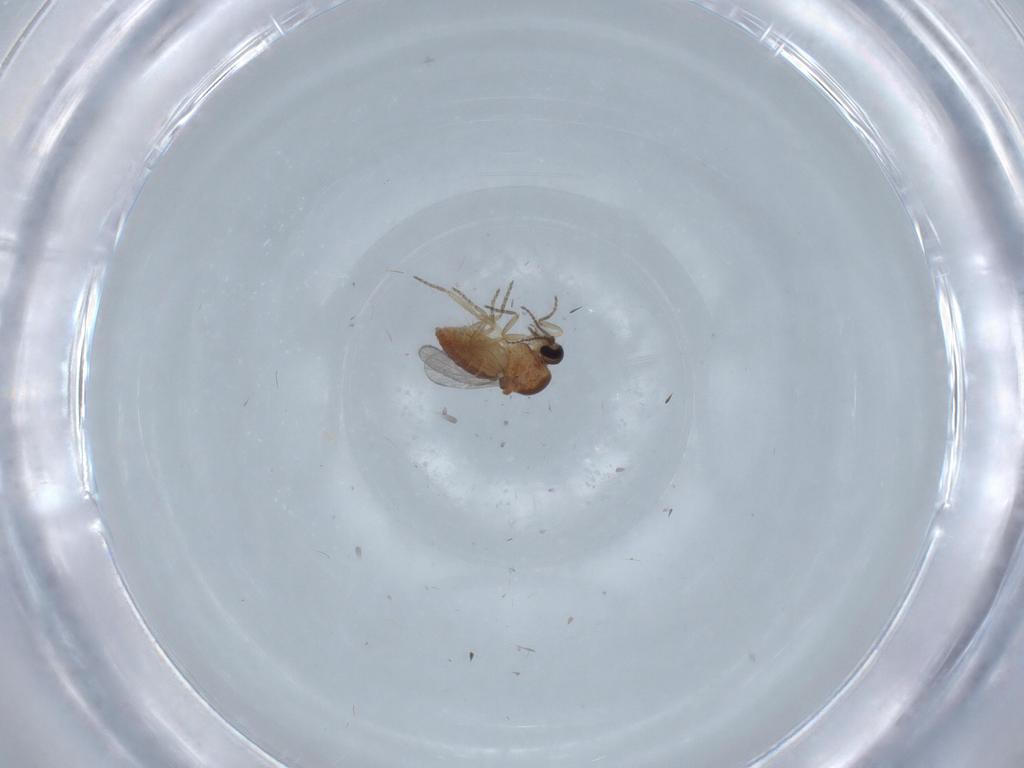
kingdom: Animalia
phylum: Arthropoda
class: Insecta
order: Diptera
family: Ceratopogonidae
